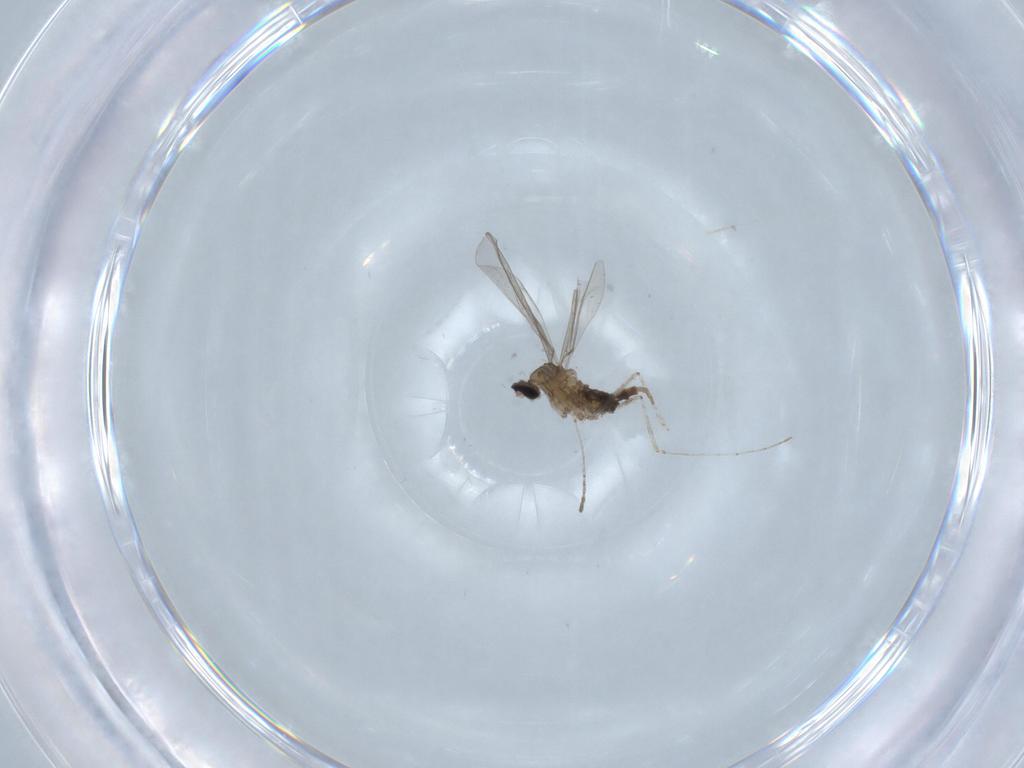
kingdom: Animalia
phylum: Arthropoda
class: Insecta
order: Diptera
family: Cecidomyiidae
